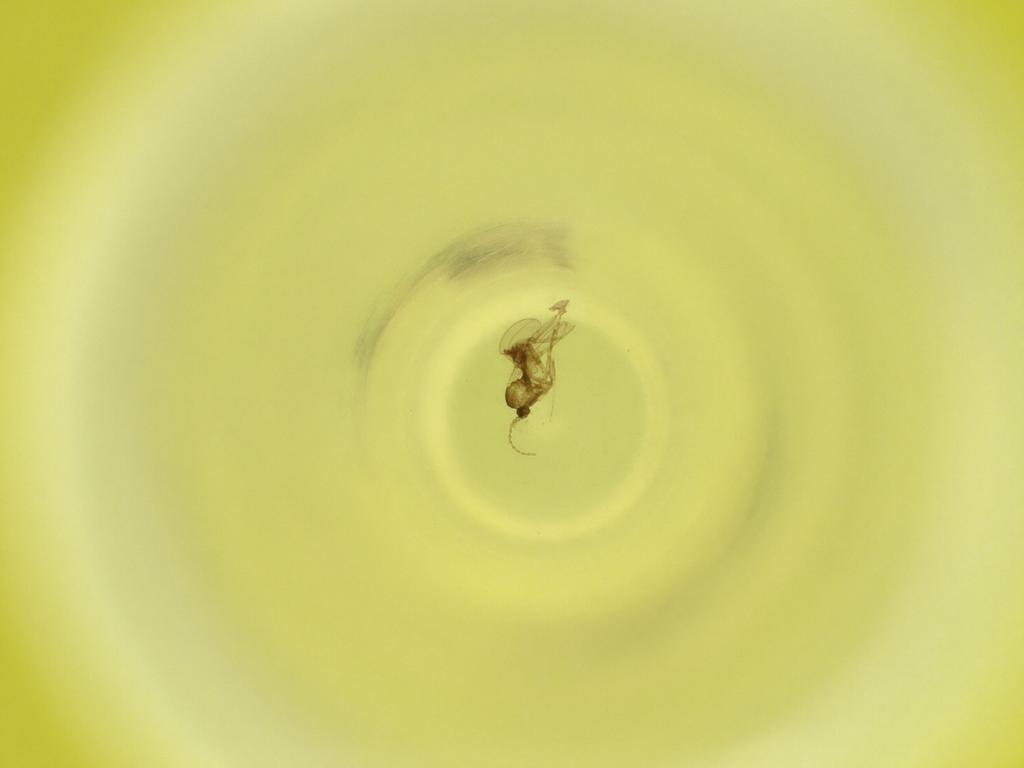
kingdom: Animalia
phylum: Arthropoda
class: Insecta
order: Diptera
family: Cecidomyiidae
